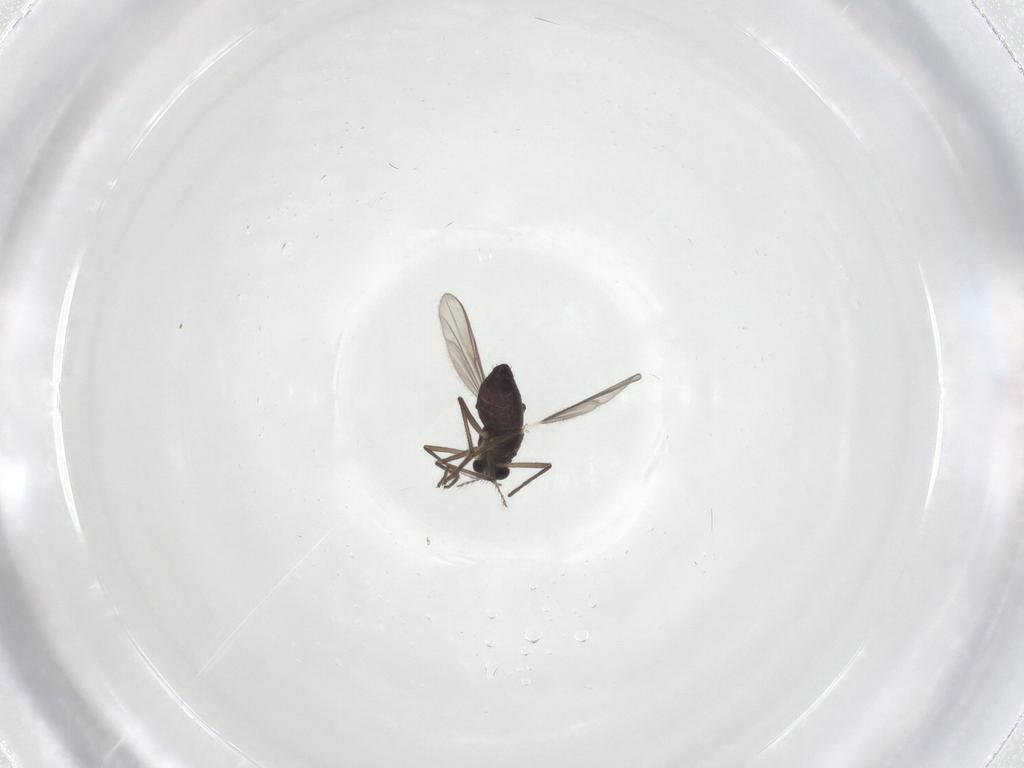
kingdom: Animalia
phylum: Arthropoda
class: Insecta
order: Diptera
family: Chironomidae
